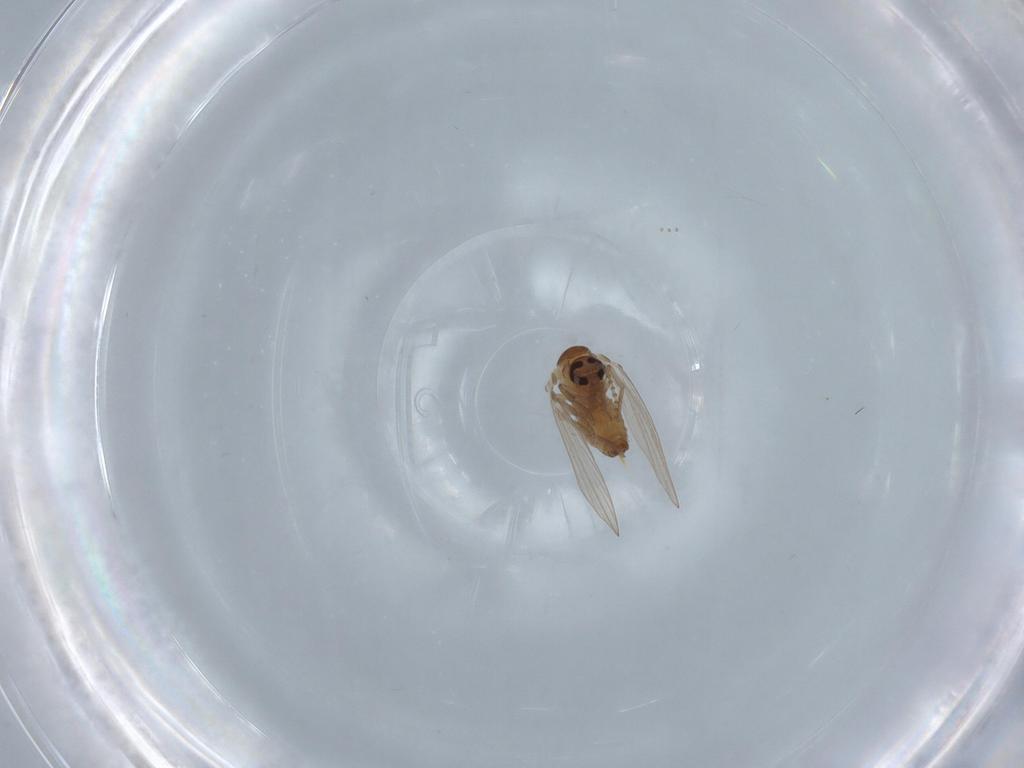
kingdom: Animalia
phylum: Arthropoda
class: Insecta
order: Diptera
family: Psychodidae
